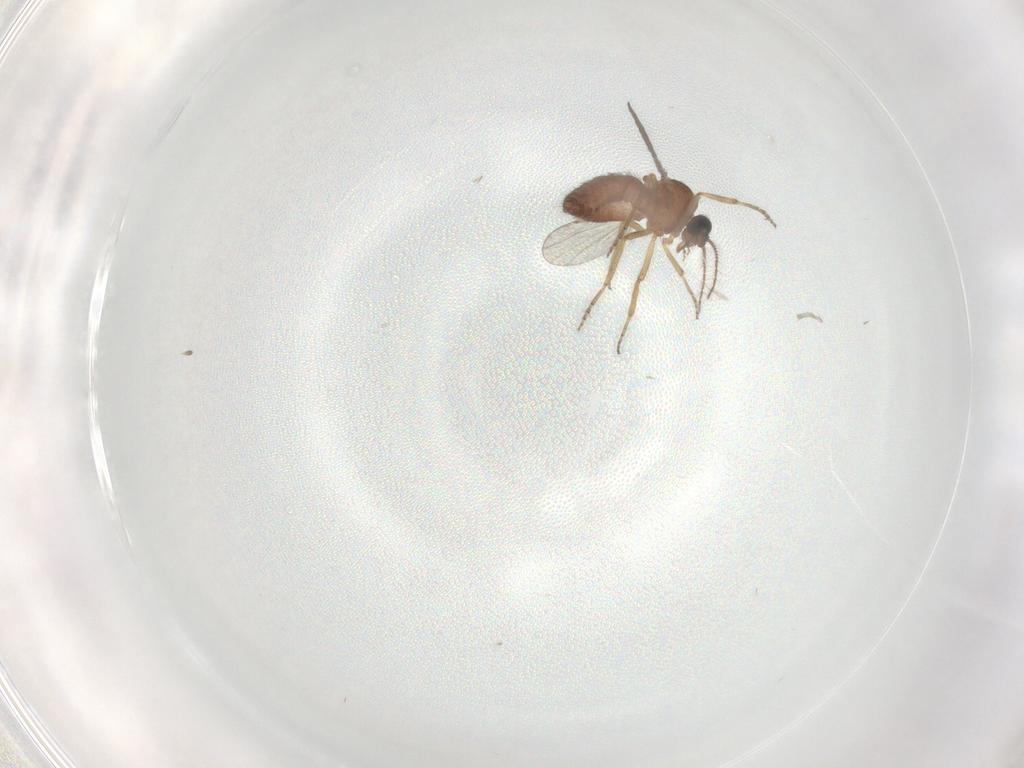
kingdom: Animalia
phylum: Arthropoda
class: Insecta
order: Diptera
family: Ceratopogonidae
